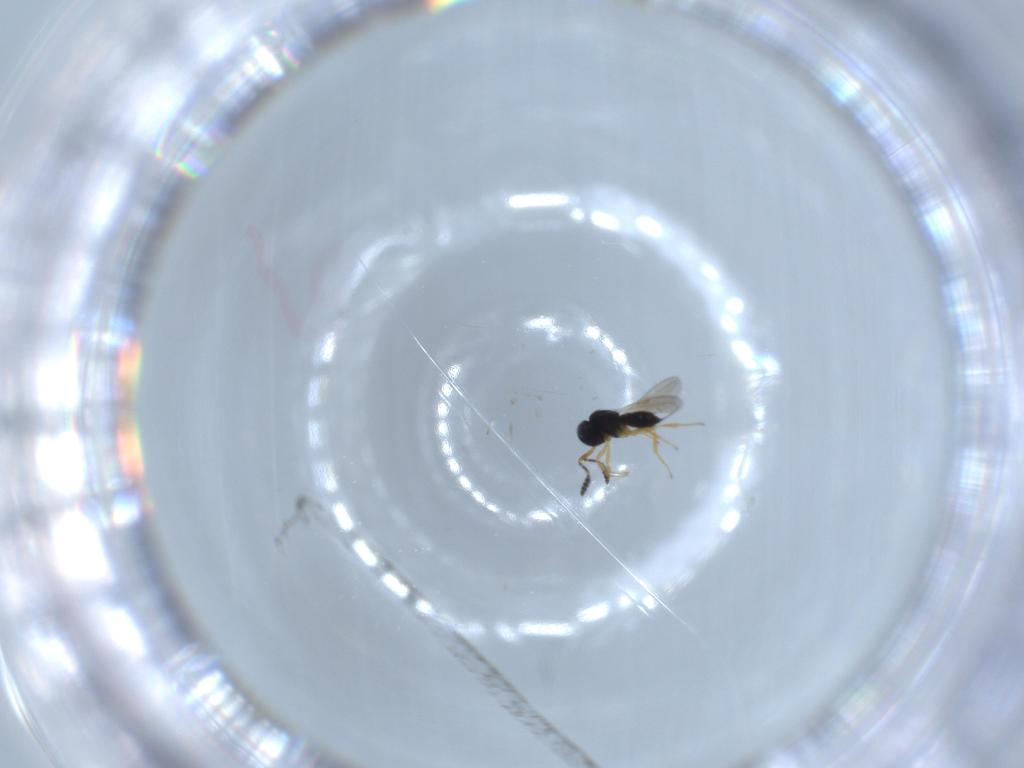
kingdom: Animalia
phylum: Arthropoda
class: Insecta
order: Hymenoptera
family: Scelionidae
